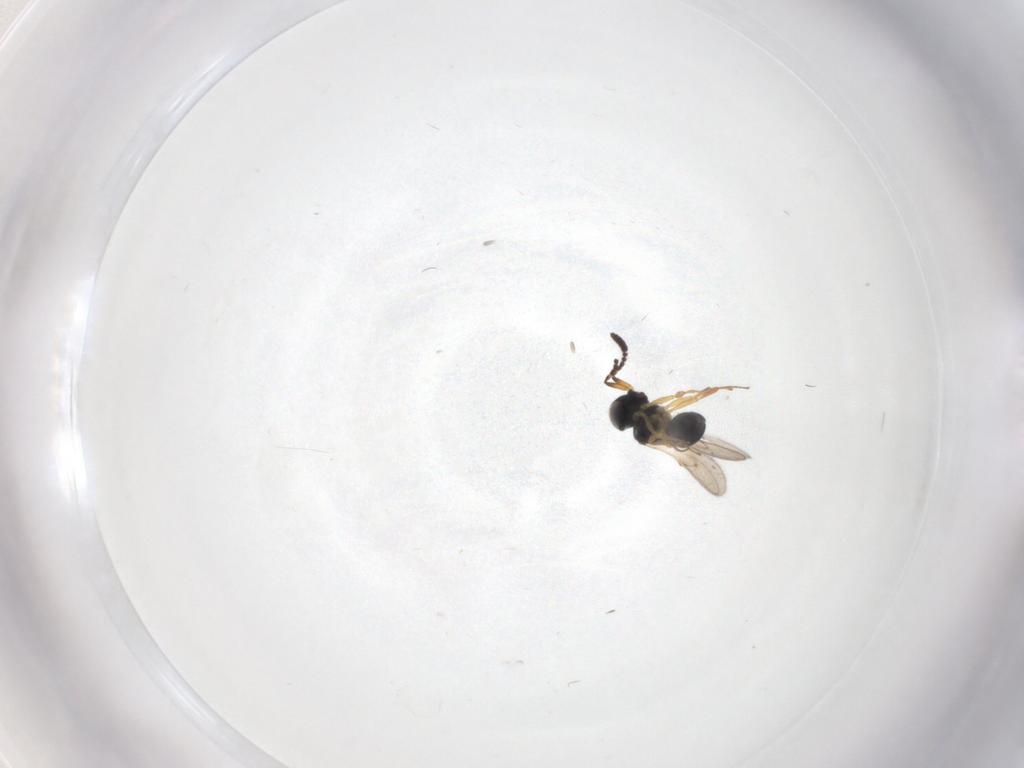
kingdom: Animalia
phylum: Arthropoda
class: Insecta
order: Hymenoptera
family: Scelionidae
